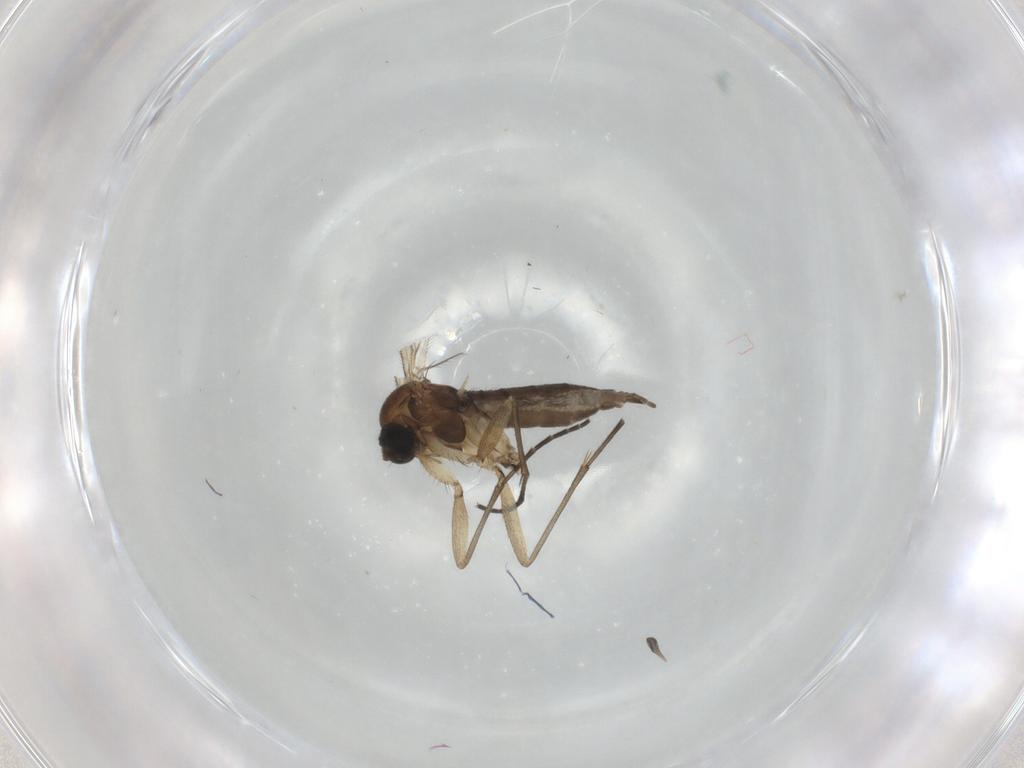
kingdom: Animalia
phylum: Arthropoda
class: Insecta
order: Diptera
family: Sciaridae
